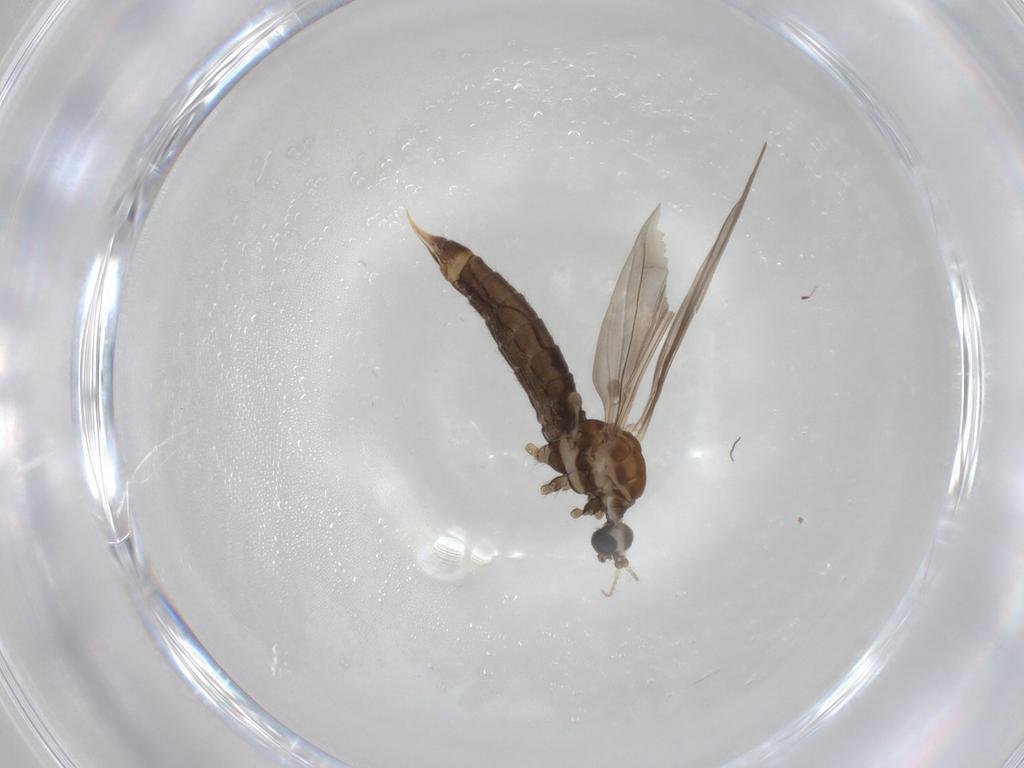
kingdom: Animalia
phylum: Arthropoda
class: Insecta
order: Diptera
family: Limoniidae
